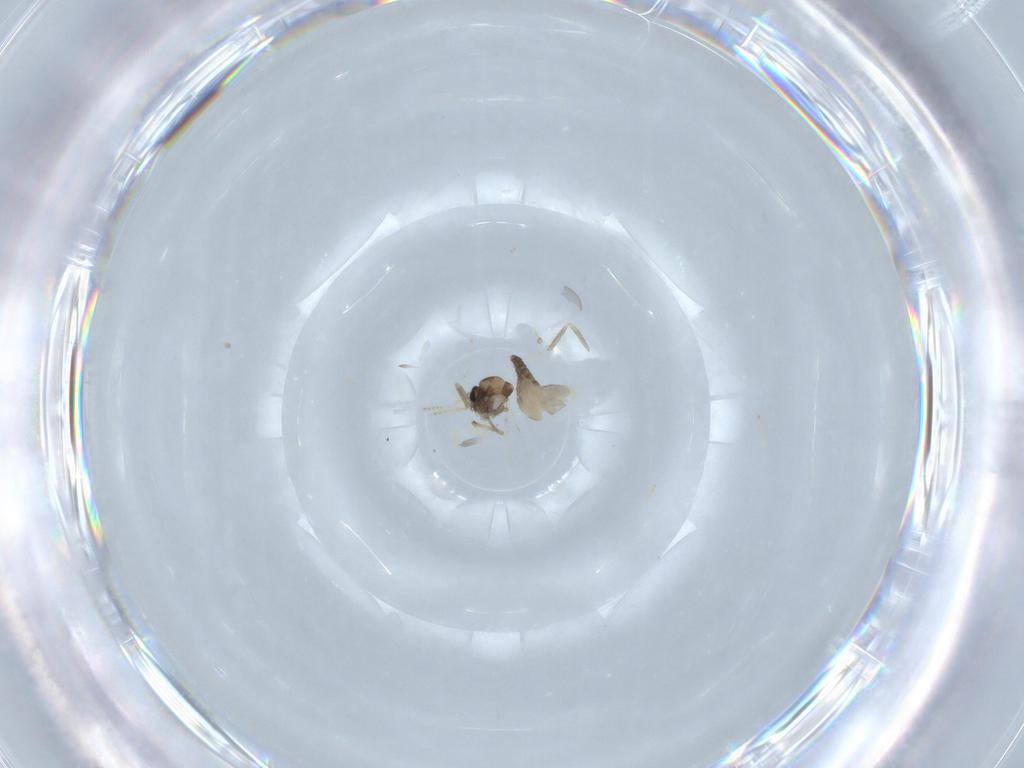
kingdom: Animalia
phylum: Arthropoda
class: Insecta
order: Diptera
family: Ceratopogonidae
